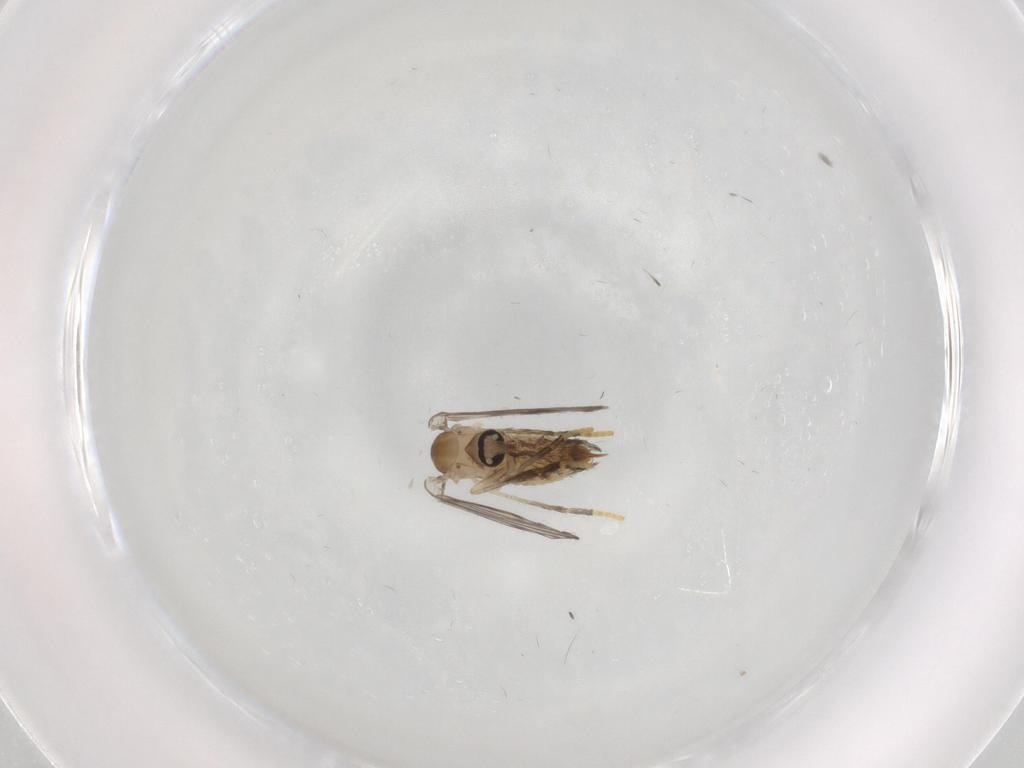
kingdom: Animalia
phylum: Arthropoda
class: Insecta
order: Diptera
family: Psychodidae
